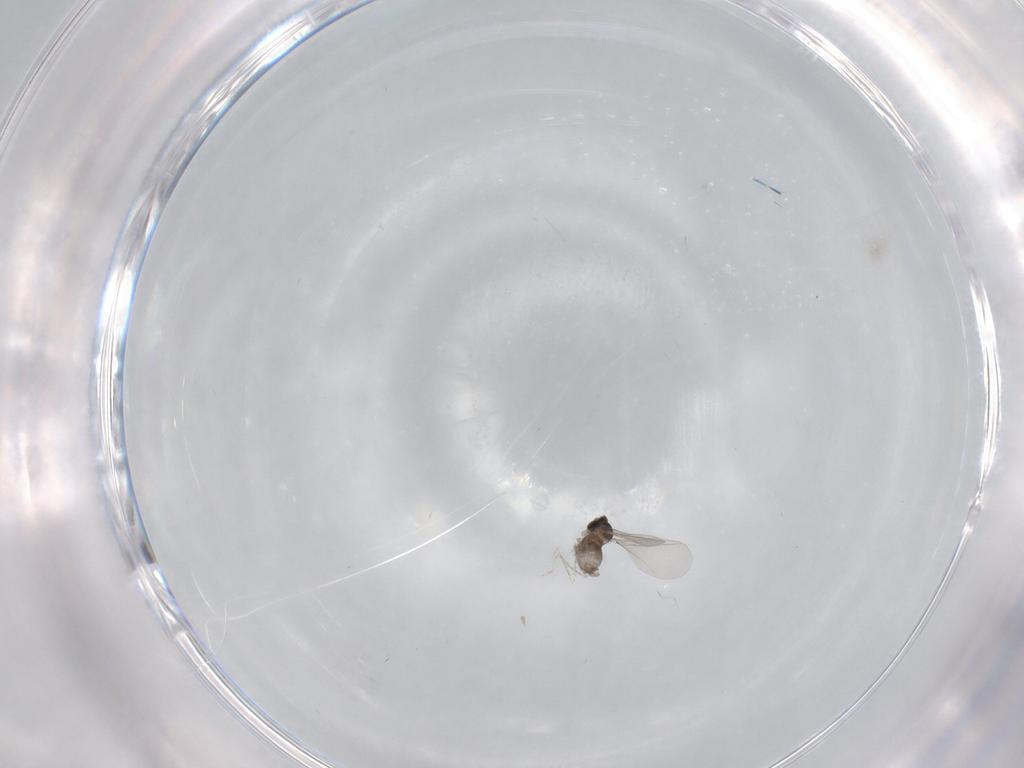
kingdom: Animalia
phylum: Arthropoda
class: Insecta
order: Diptera
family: Cecidomyiidae
